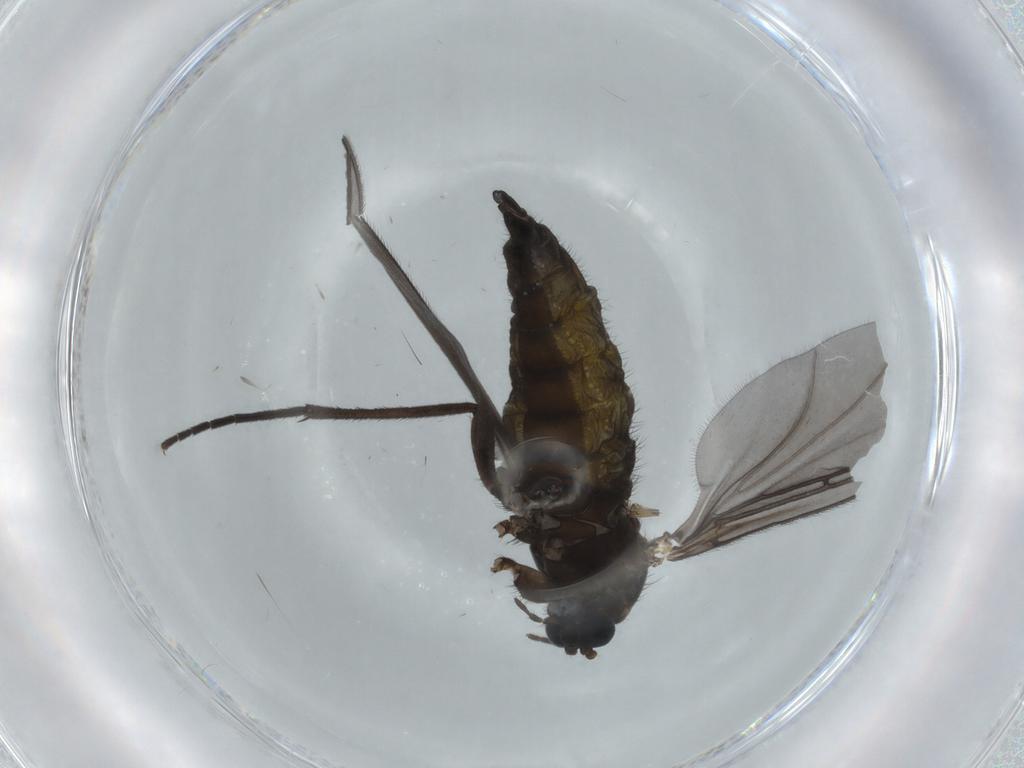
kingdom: Animalia
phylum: Arthropoda
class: Insecta
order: Diptera
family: Sciaridae
